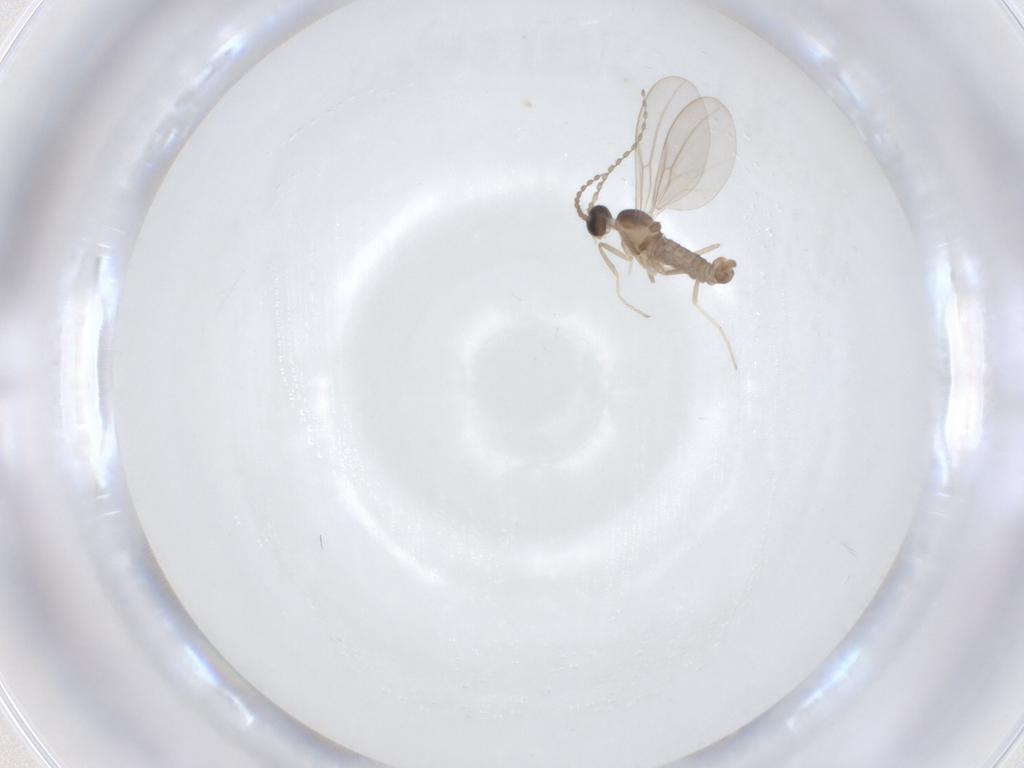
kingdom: Animalia
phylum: Arthropoda
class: Insecta
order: Diptera
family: Cecidomyiidae
